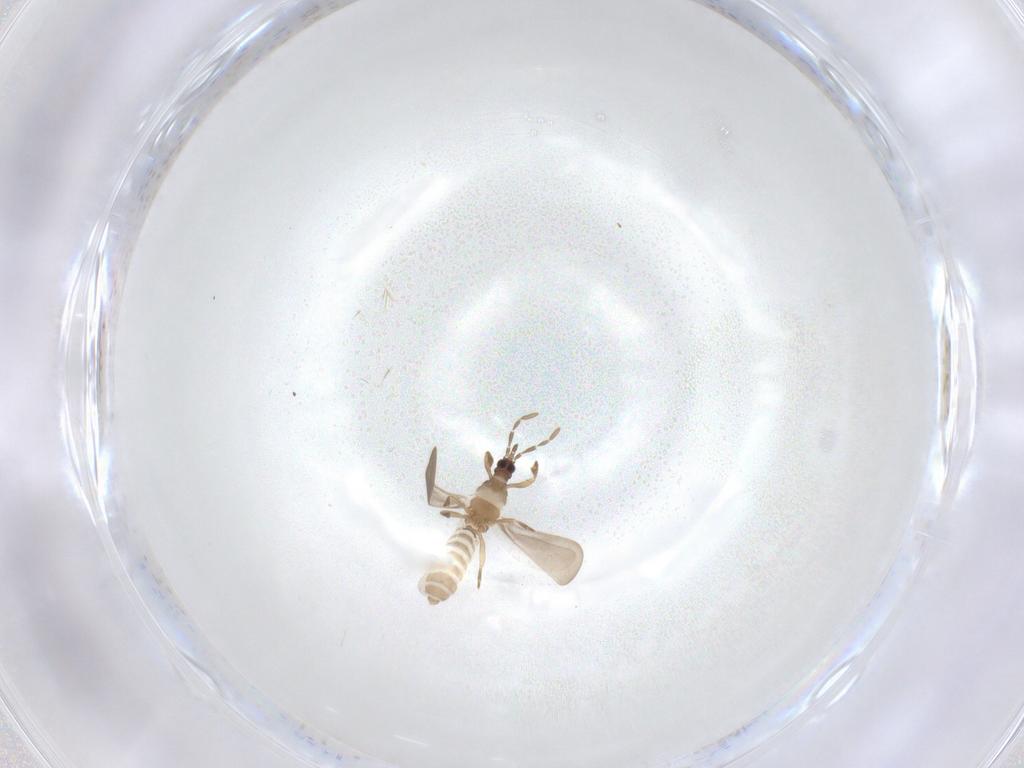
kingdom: Animalia
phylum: Arthropoda
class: Insecta
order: Hemiptera
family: Enicocephalidae
